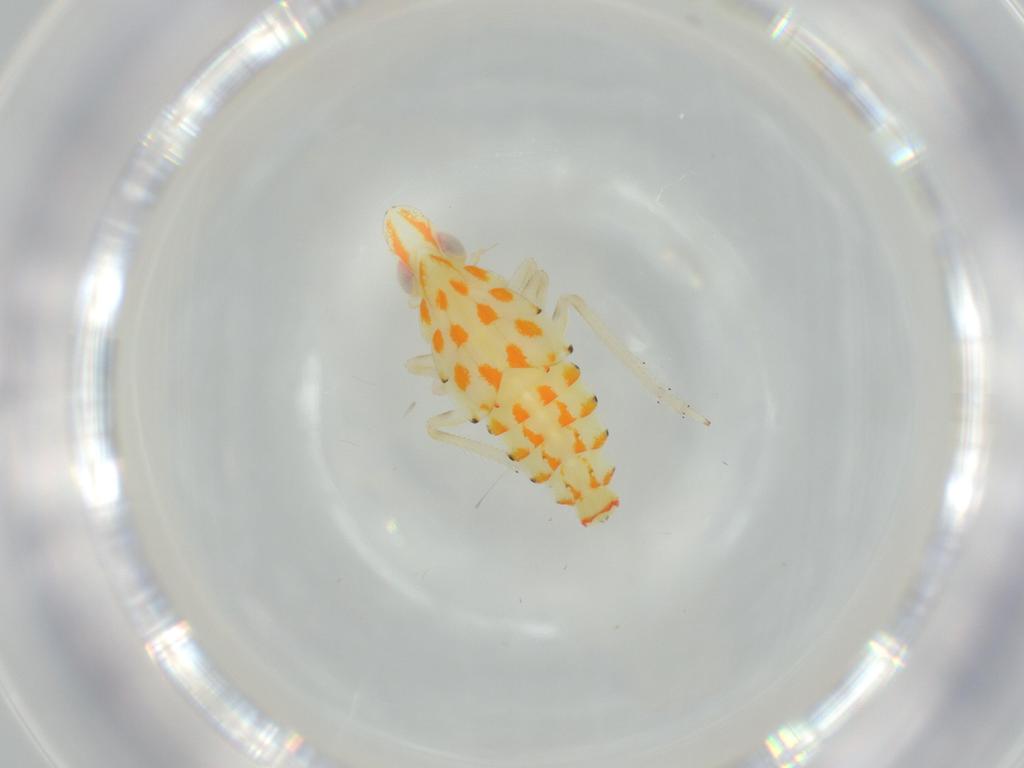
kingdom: Animalia
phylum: Arthropoda
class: Insecta
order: Hemiptera
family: Tropiduchidae
